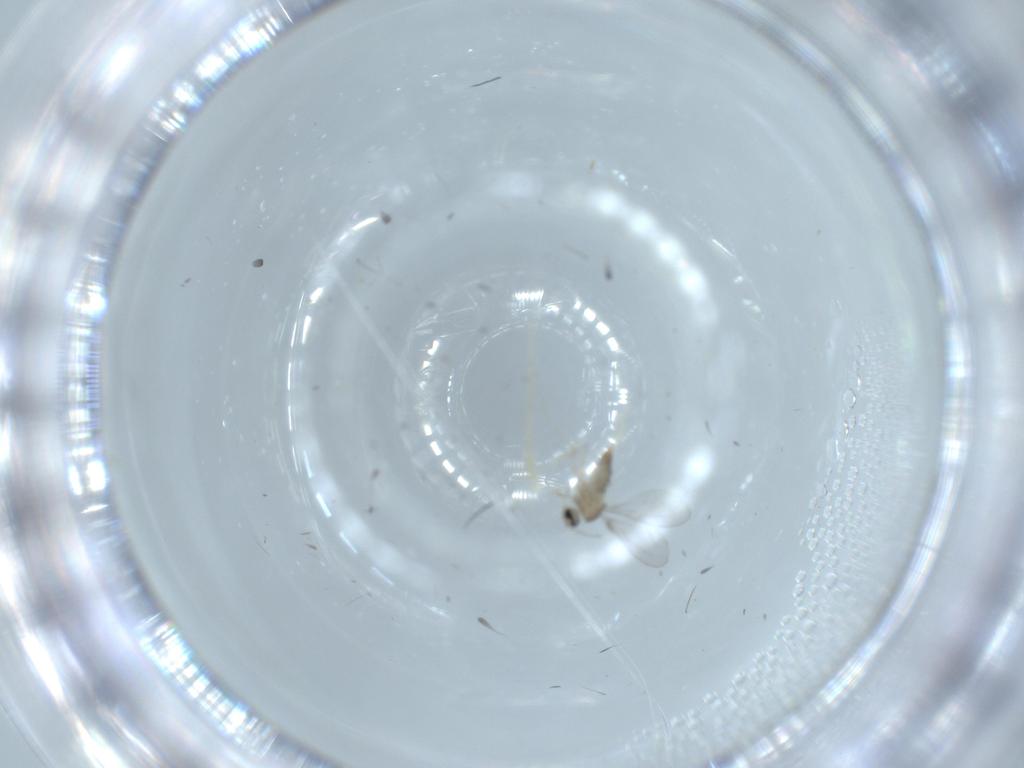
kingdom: Animalia
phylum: Arthropoda
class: Insecta
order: Diptera
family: Cecidomyiidae
